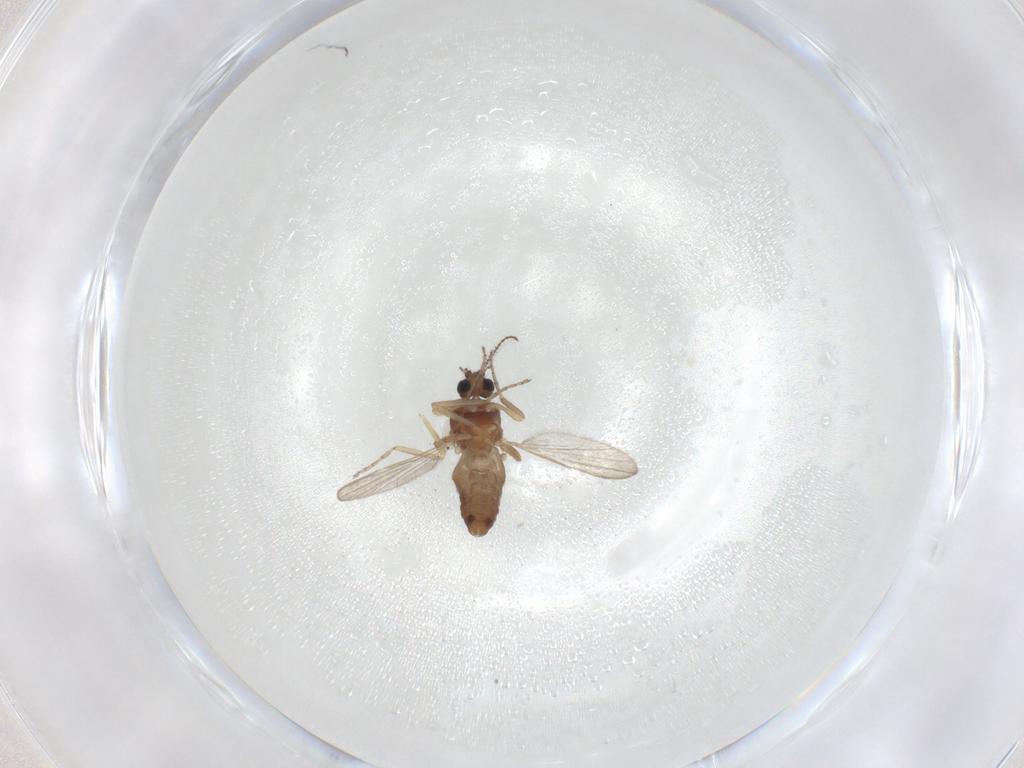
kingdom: Animalia
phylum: Arthropoda
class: Insecta
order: Diptera
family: Ceratopogonidae
